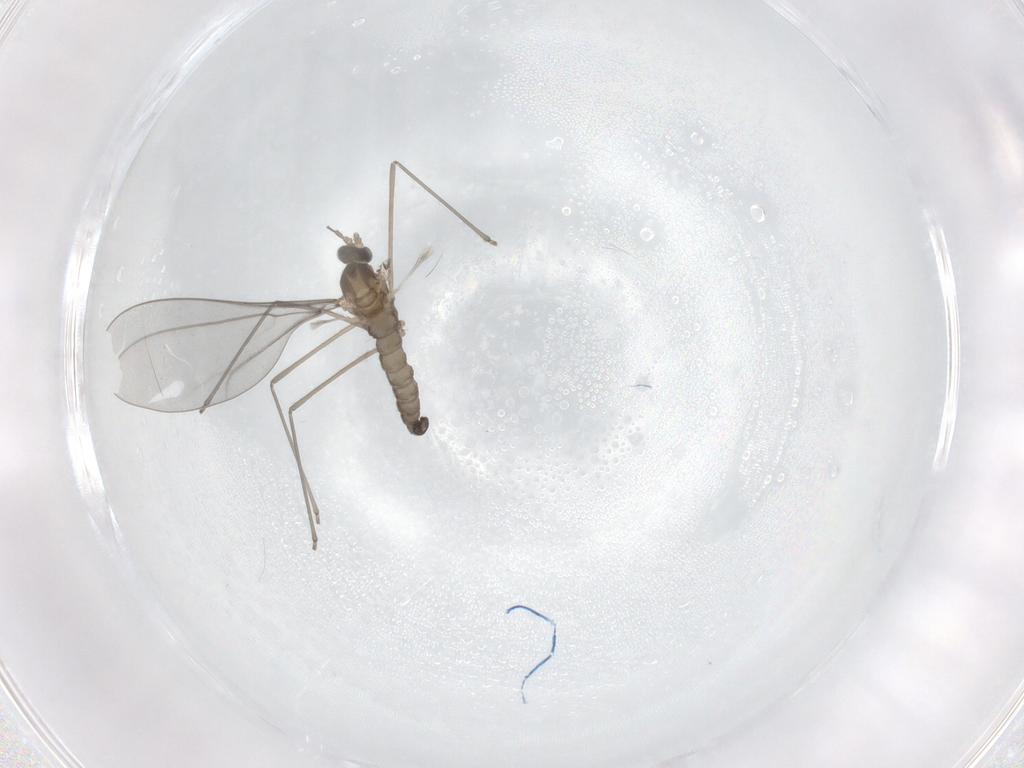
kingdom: Animalia
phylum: Arthropoda
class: Insecta
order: Diptera
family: Cecidomyiidae
